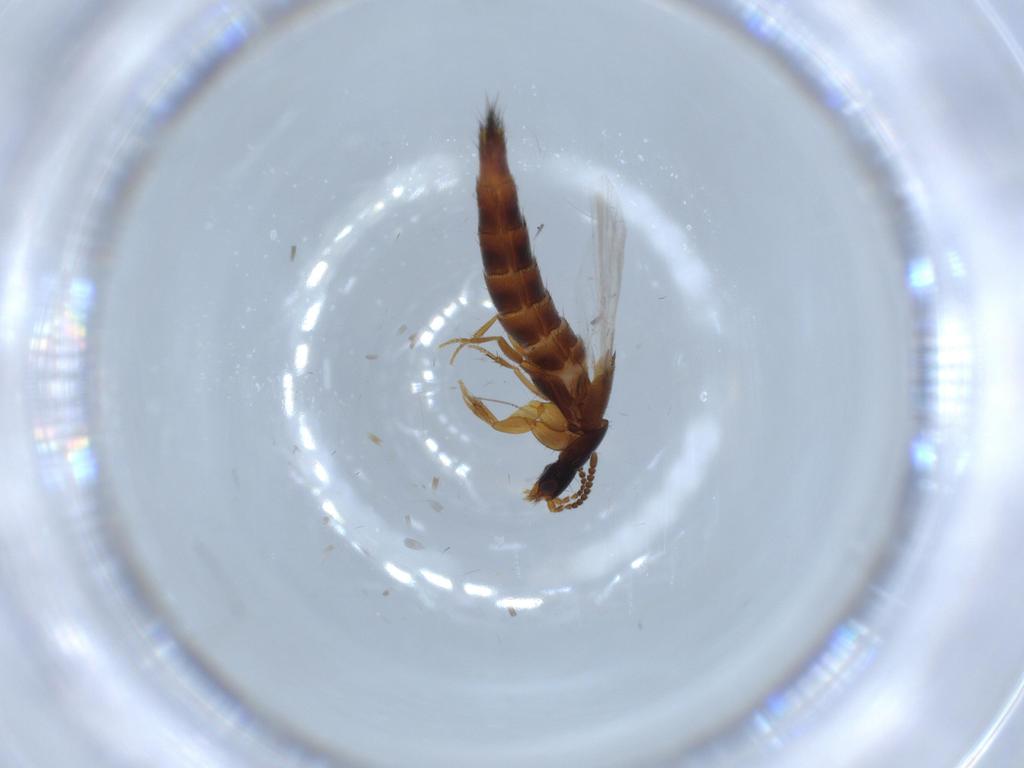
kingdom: Animalia
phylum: Arthropoda
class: Insecta
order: Coleoptera
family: Staphylinidae
